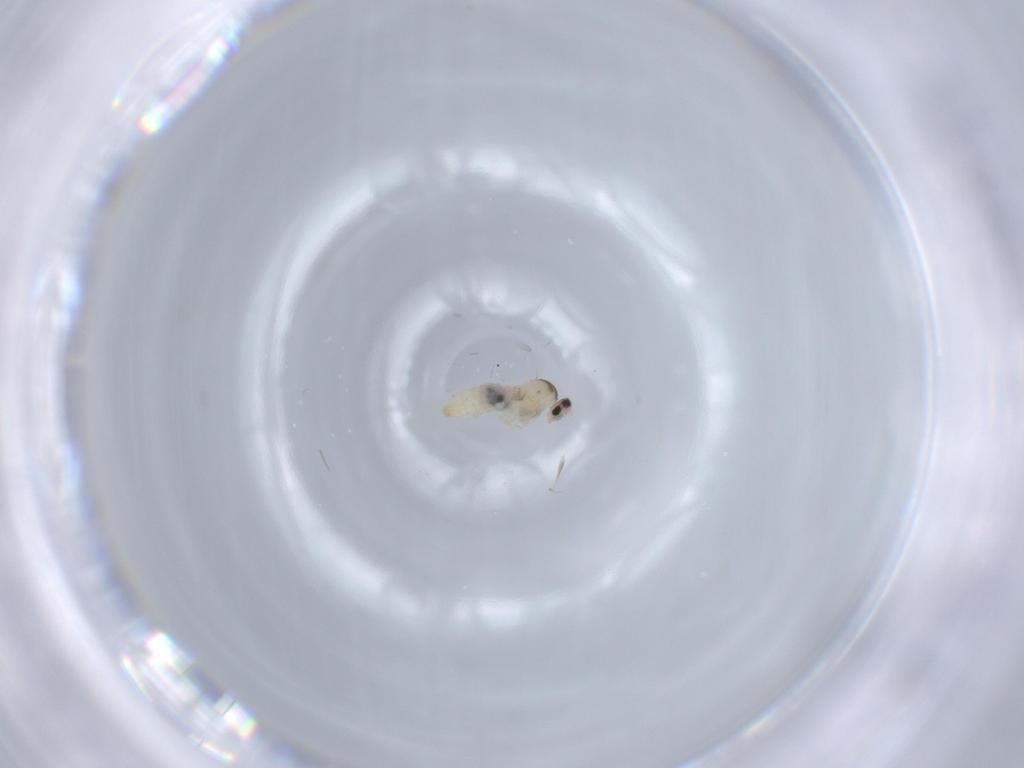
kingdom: Animalia
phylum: Arthropoda
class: Insecta
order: Diptera
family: Cecidomyiidae
